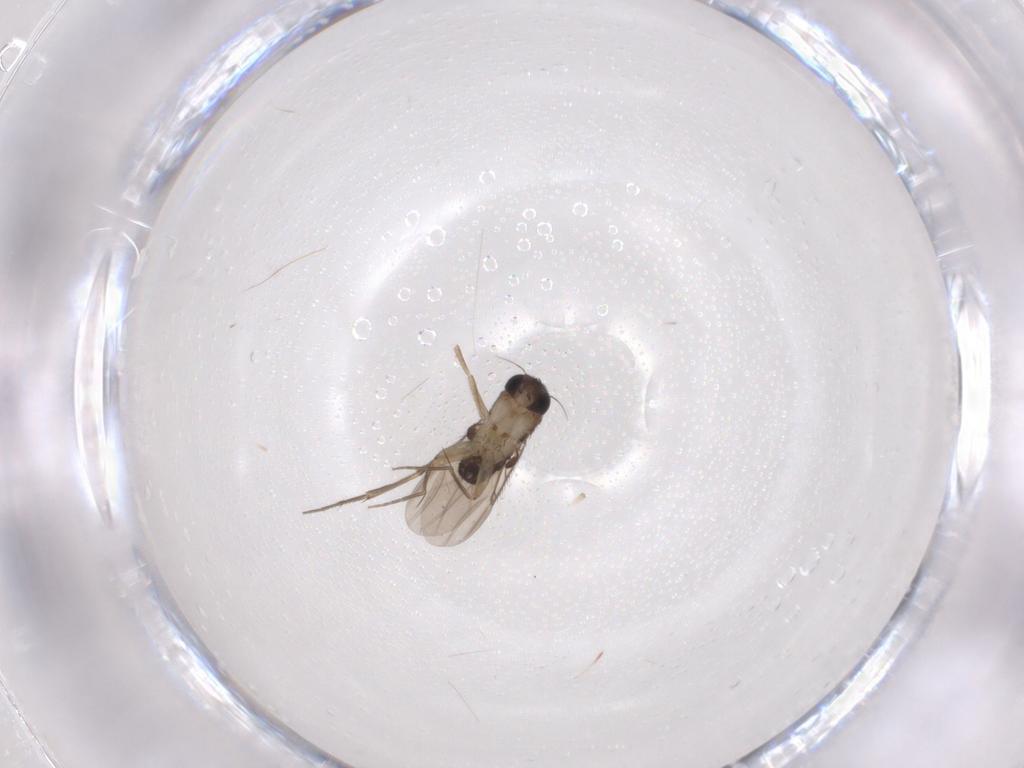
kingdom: Animalia
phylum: Arthropoda
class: Insecta
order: Diptera
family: Phoridae
